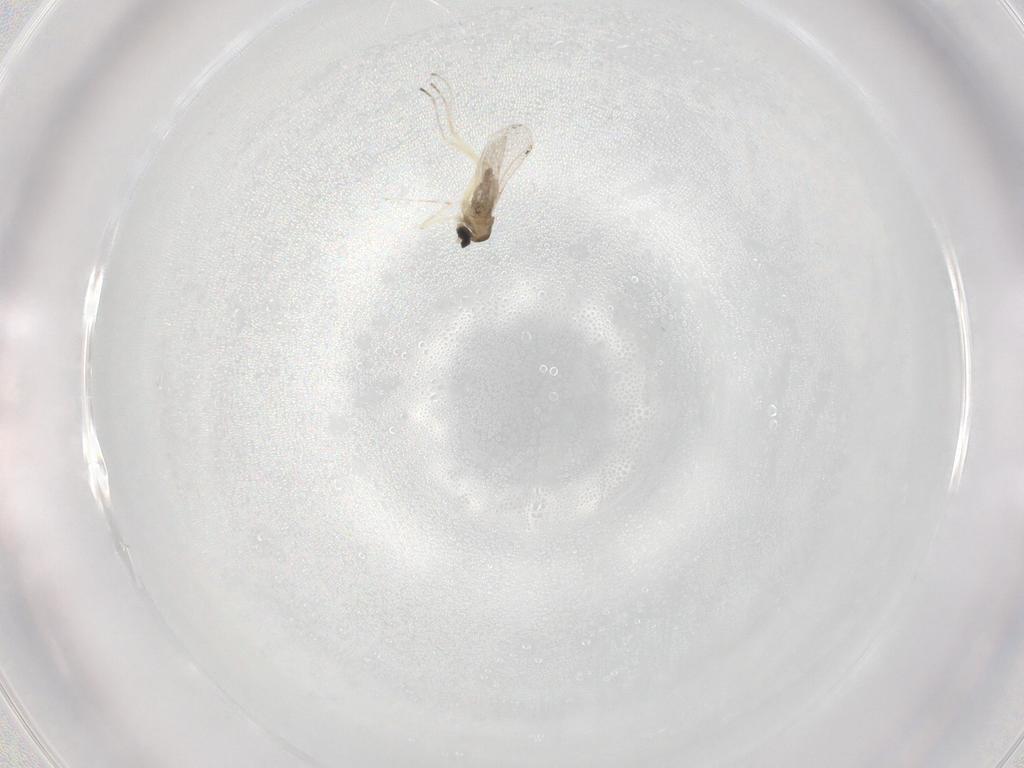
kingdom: Animalia
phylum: Arthropoda
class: Insecta
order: Diptera
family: Cecidomyiidae
